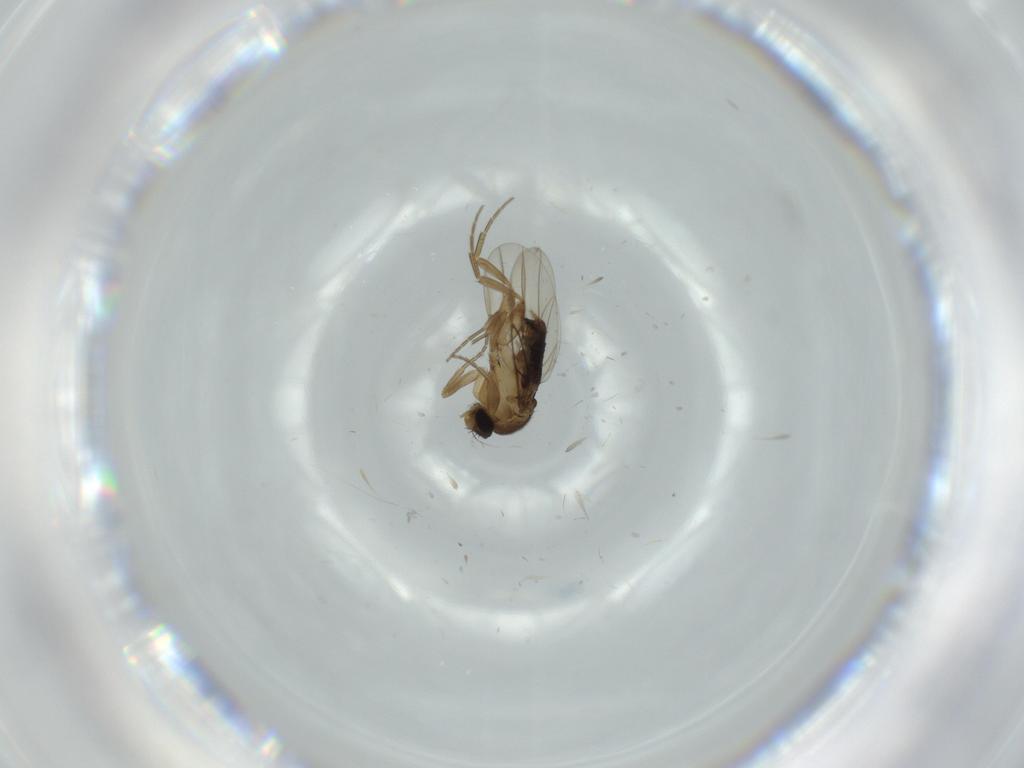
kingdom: Animalia
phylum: Arthropoda
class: Insecta
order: Diptera
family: Phoridae
